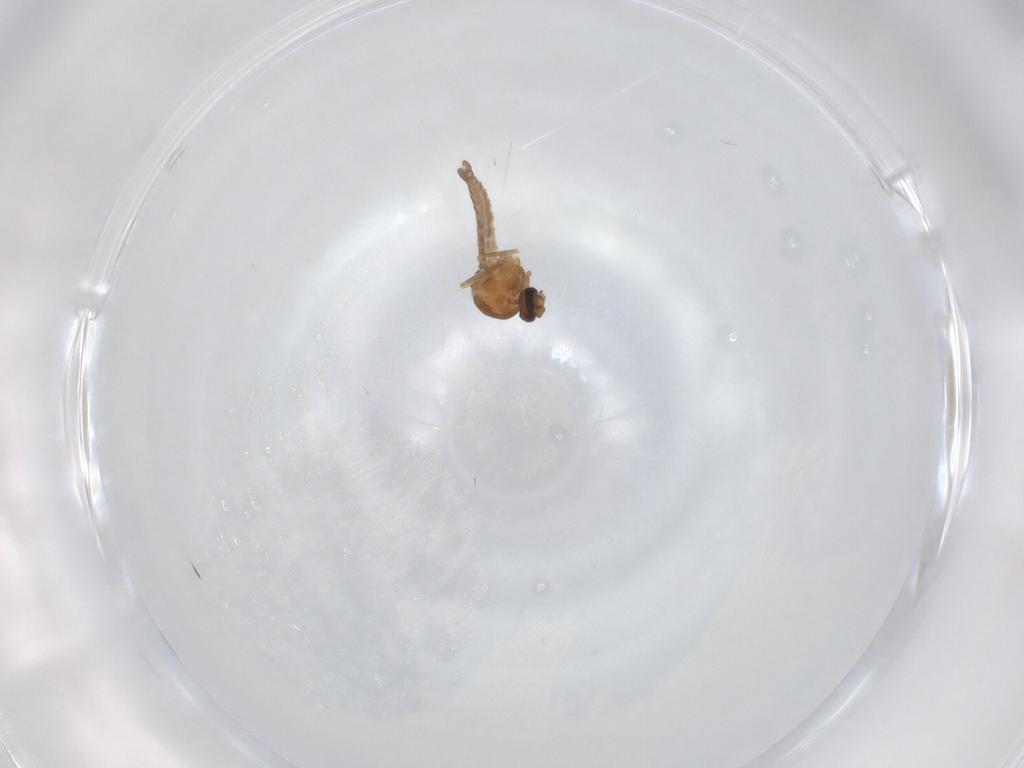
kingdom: Animalia
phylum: Arthropoda
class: Insecta
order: Diptera
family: Ceratopogonidae
